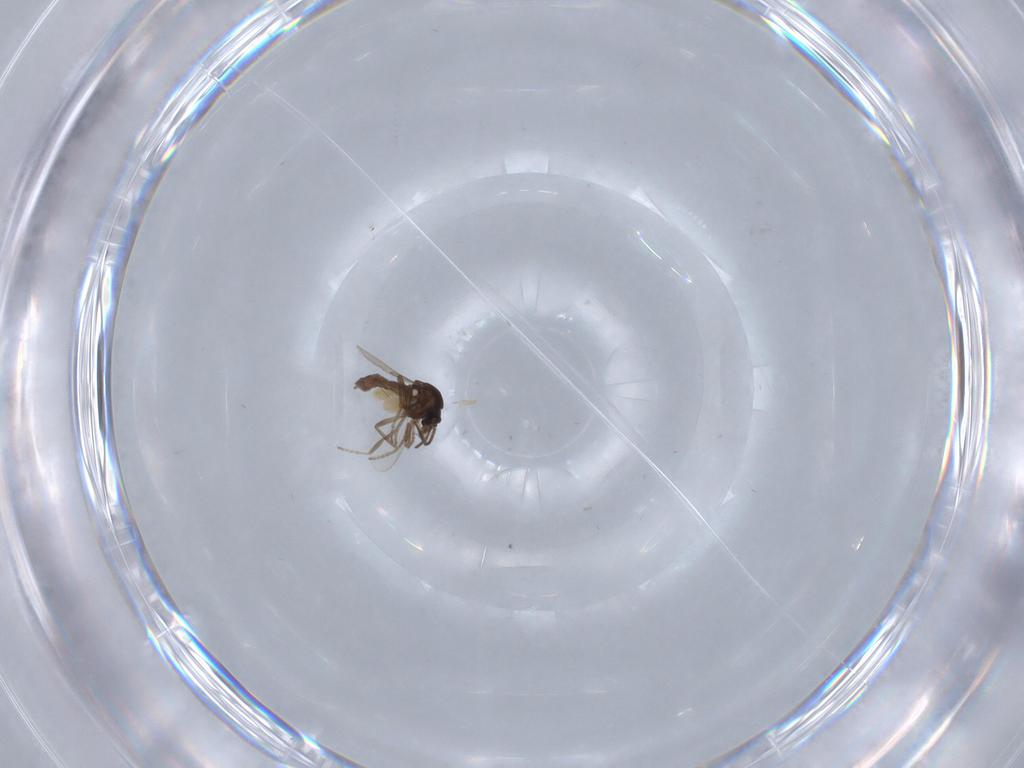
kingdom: Animalia
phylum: Arthropoda
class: Insecta
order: Diptera
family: Ceratopogonidae
